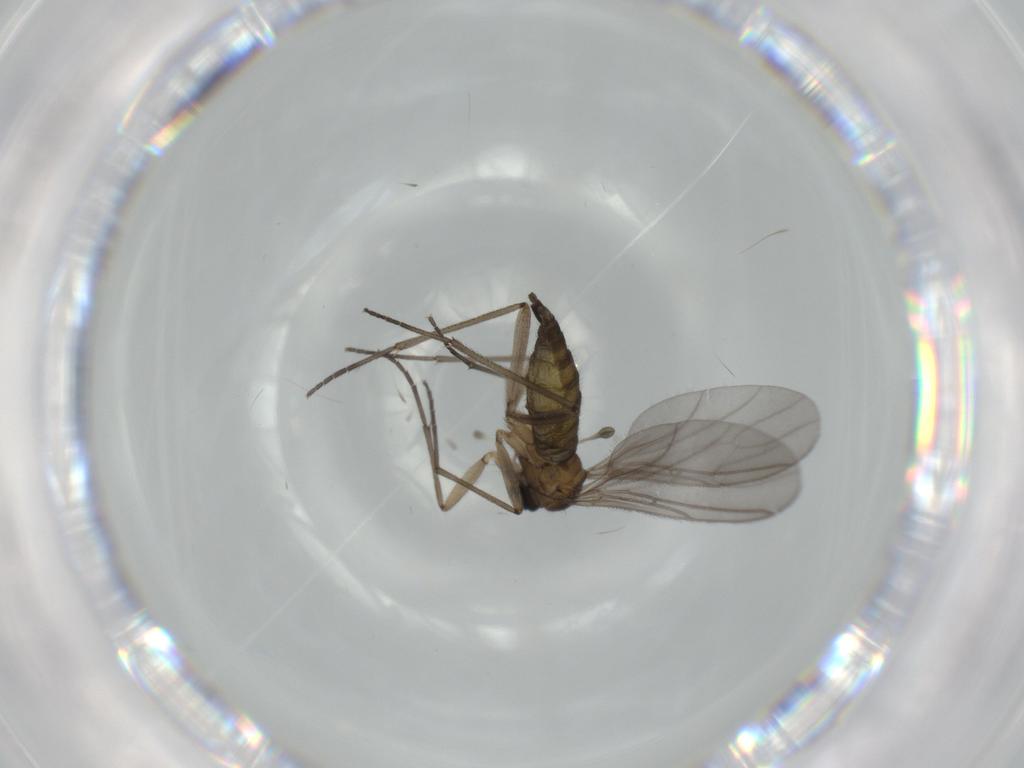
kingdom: Animalia
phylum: Arthropoda
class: Insecta
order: Diptera
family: Sciaridae
